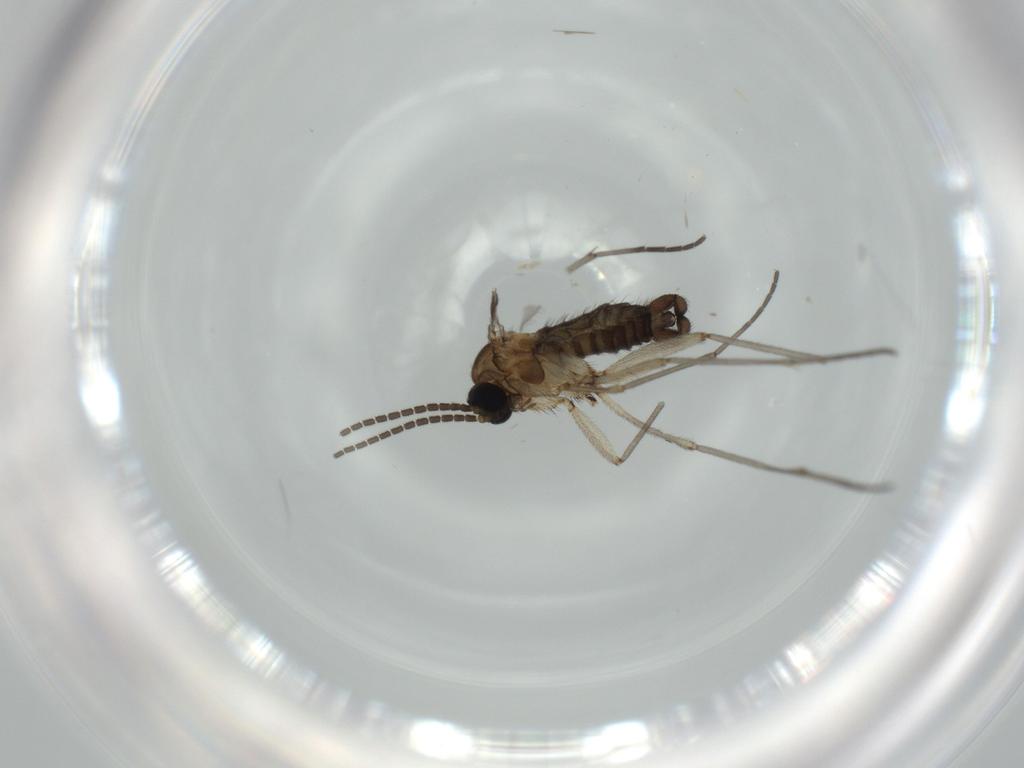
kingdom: Animalia
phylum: Arthropoda
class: Insecta
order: Diptera
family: Sciaridae
